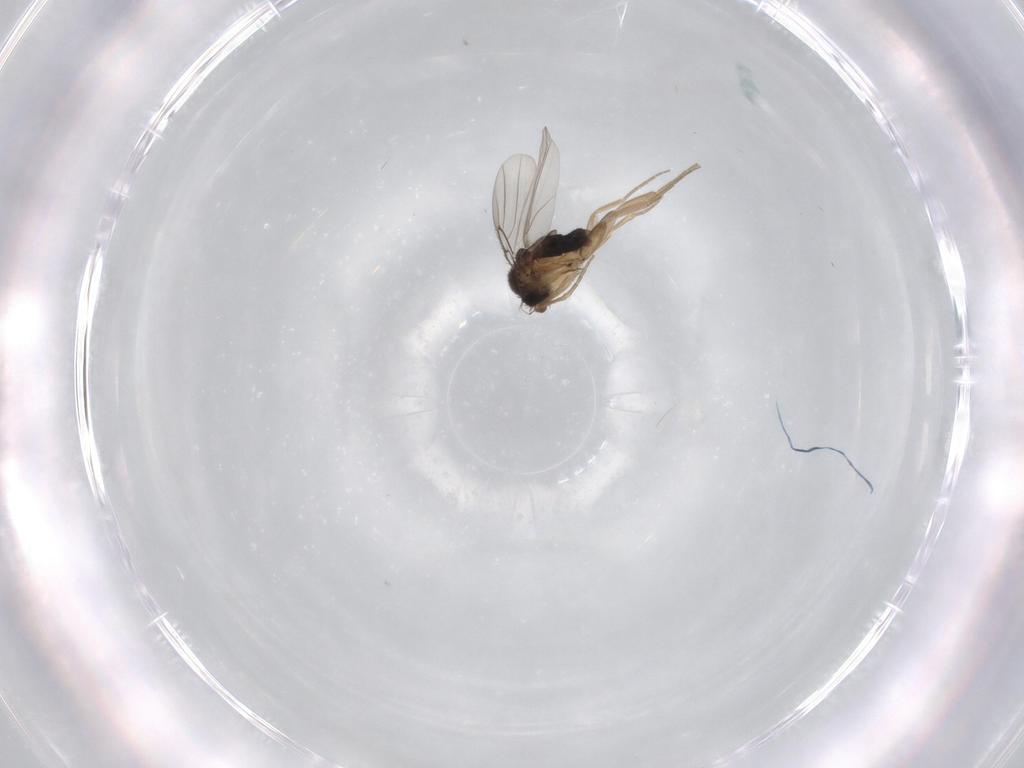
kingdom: Animalia
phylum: Arthropoda
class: Insecta
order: Diptera
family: Phoridae
